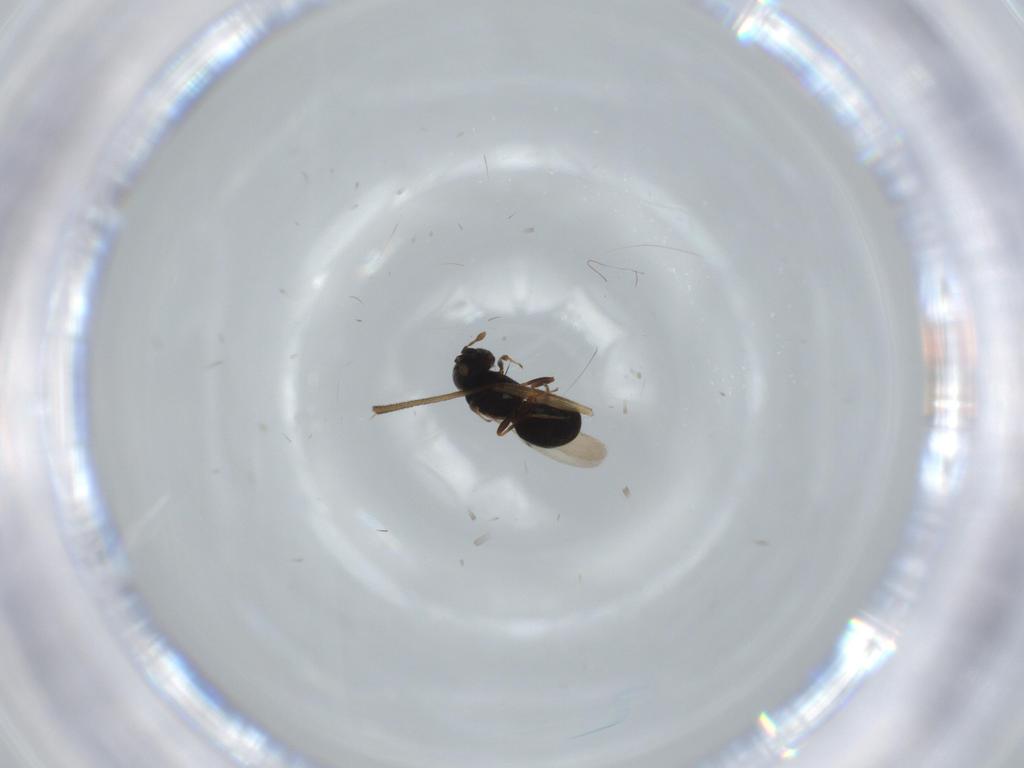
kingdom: Animalia
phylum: Arthropoda
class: Insecta
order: Hymenoptera
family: Scelionidae
